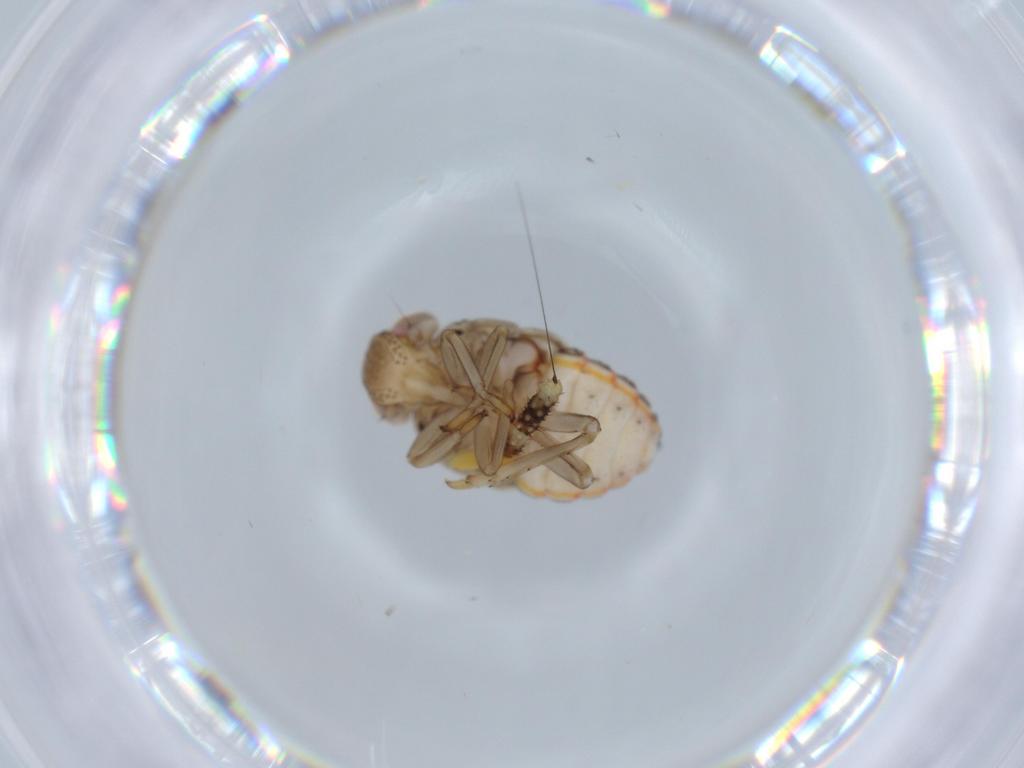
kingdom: Animalia
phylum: Arthropoda
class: Insecta
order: Hemiptera
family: Issidae
